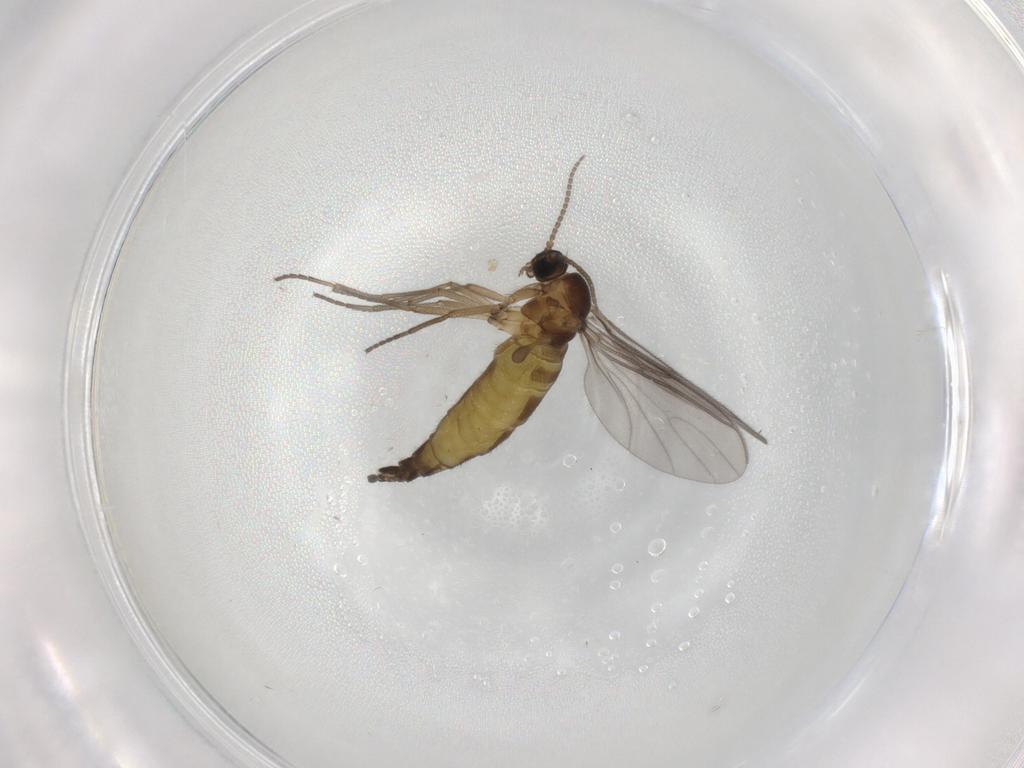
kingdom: Animalia
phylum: Arthropoda
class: Insecta
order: Diptera
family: Sciaridae
